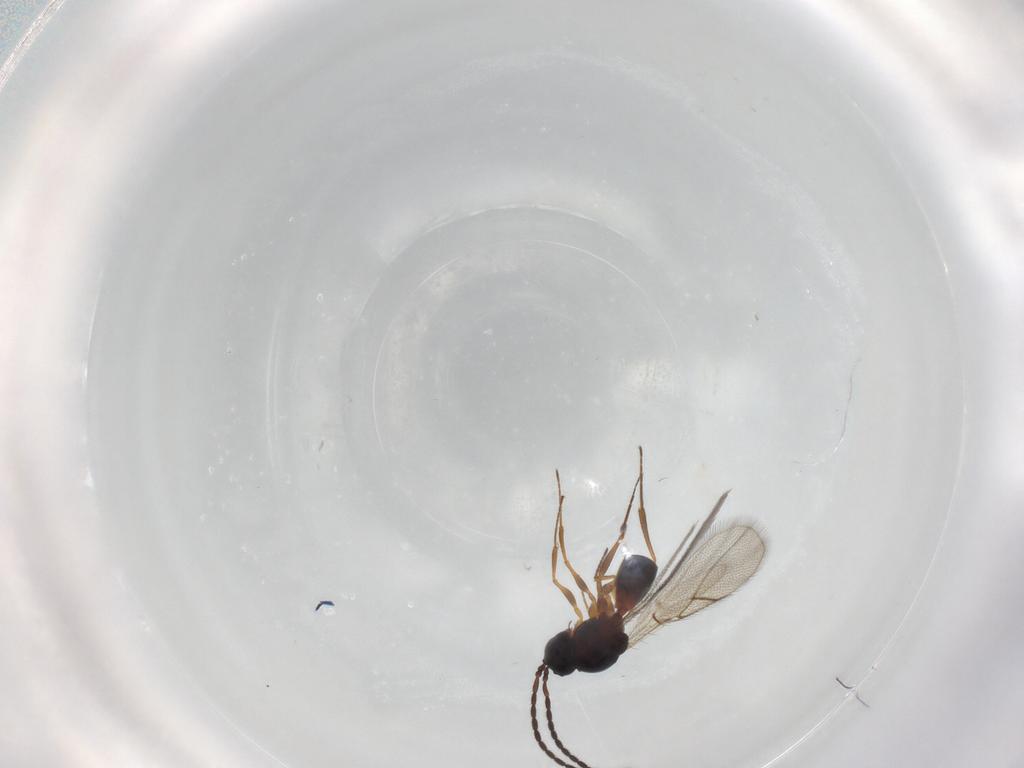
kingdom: Animalia
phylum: Arthropoda
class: Insecta
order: Hymenoptera
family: Figitidae
